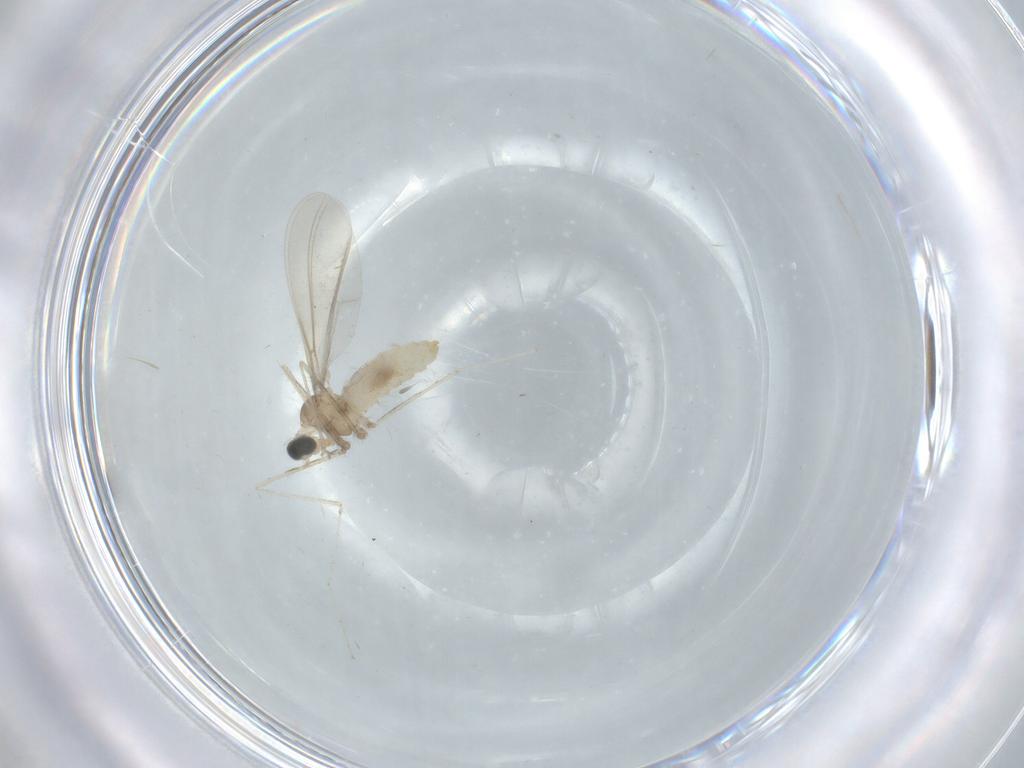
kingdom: Animalia
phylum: Arthropoda
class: Insecta
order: Diptera
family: Cecidomyiidae
